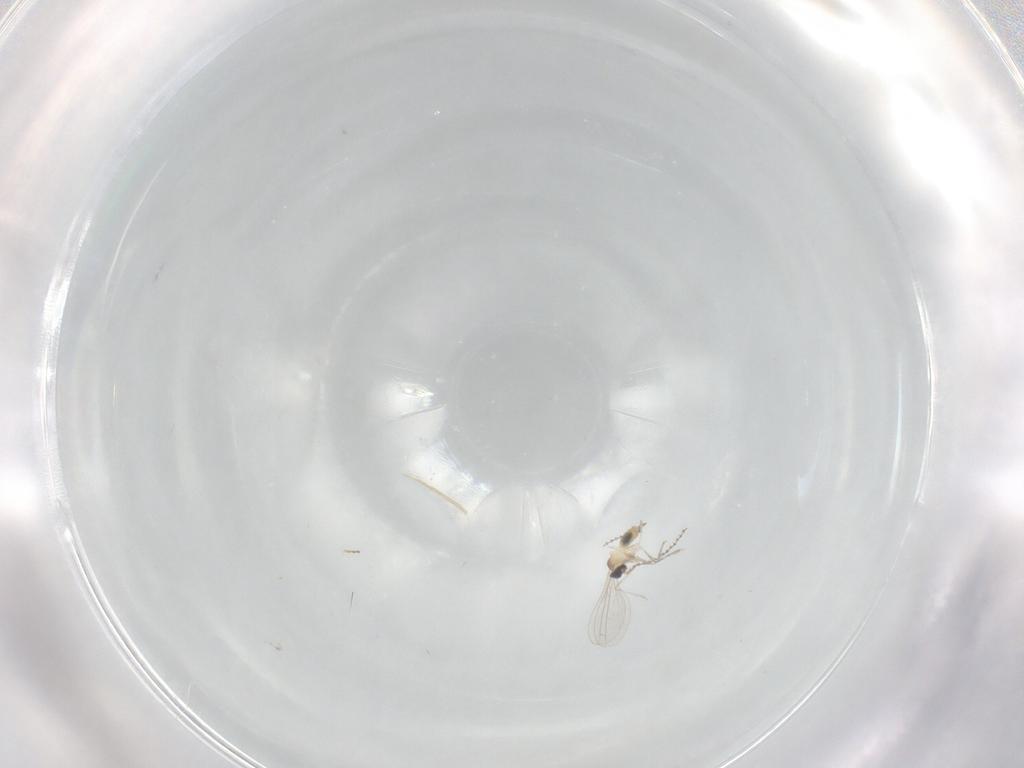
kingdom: Animalia
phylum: Arthropoda
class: Insecta
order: Diptera
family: Cecidomyiidae
